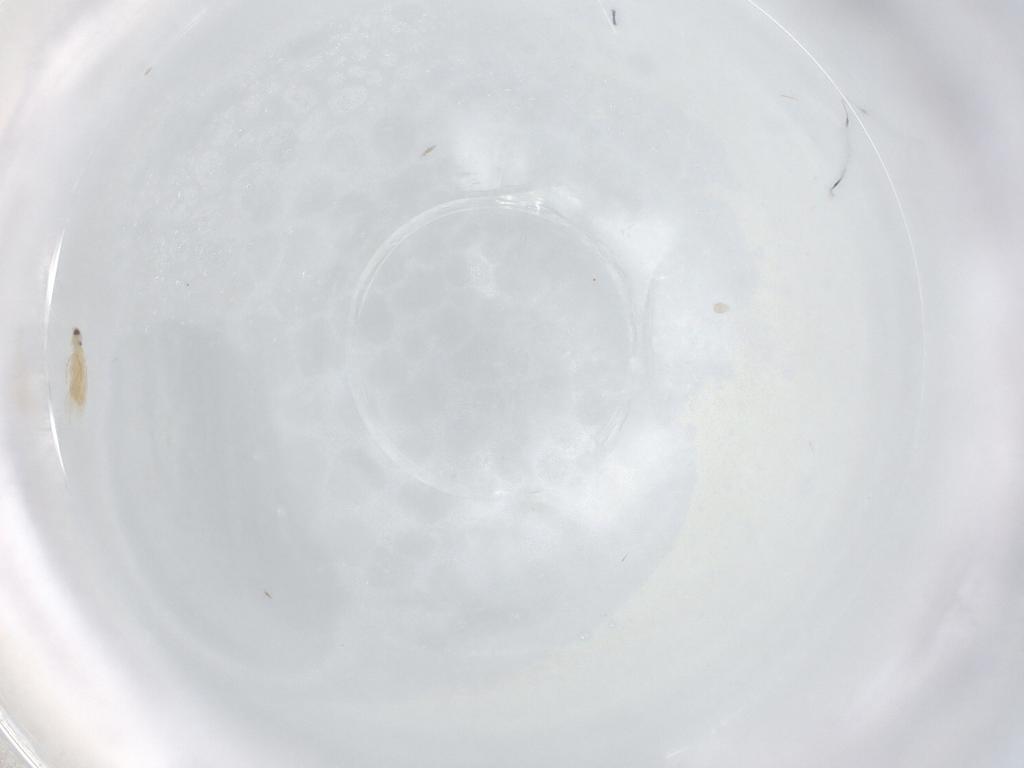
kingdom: Animalia
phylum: Arthropoda
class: Insecta
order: Hymenoptera
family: Aphelinidae
